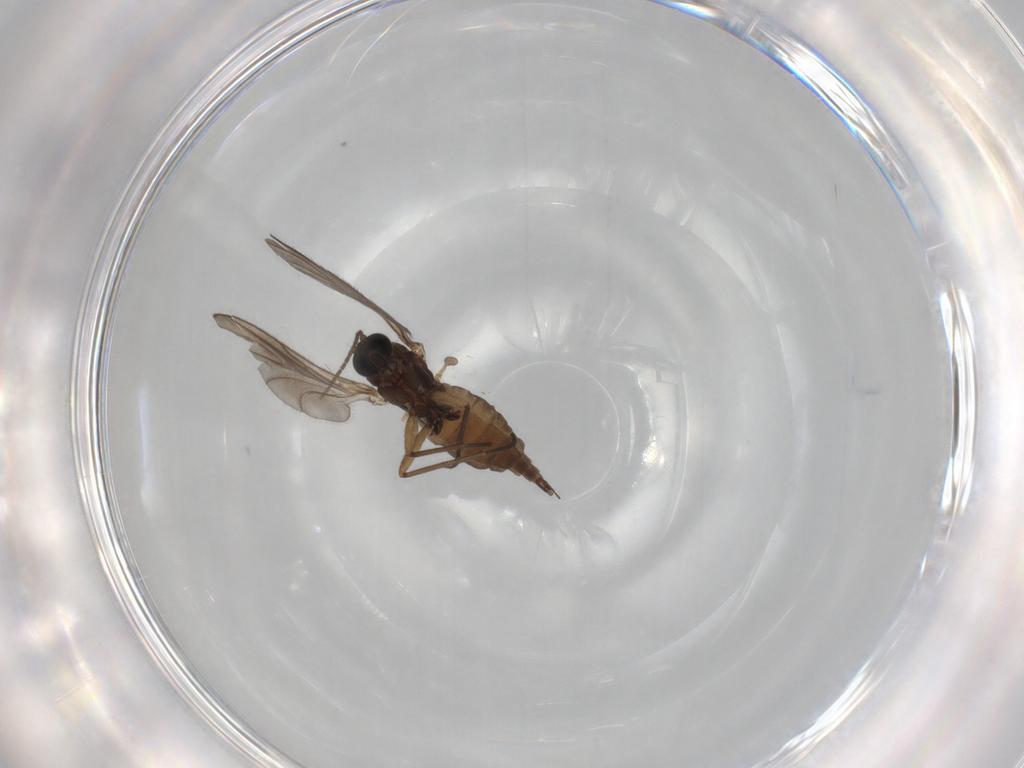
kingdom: Animalia
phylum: Arthropoda
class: Insecta
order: Diptera
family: Sciaridae
